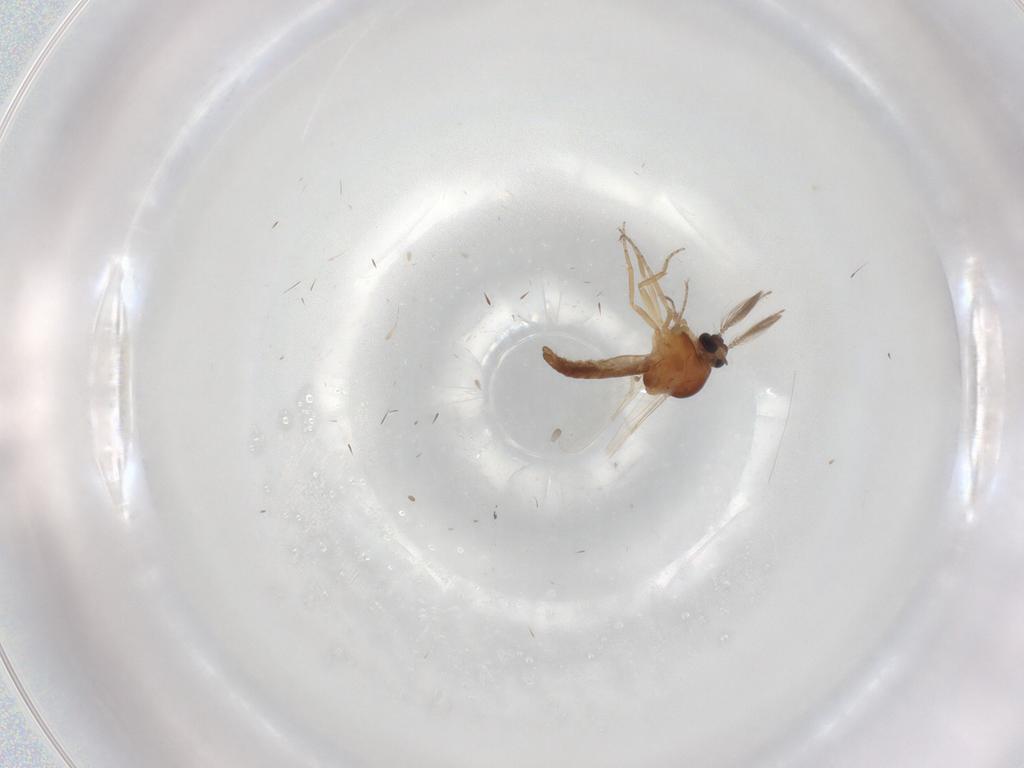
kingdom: Animalia
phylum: Arthropoda
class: Insecta
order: Diptera
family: Ceratopogonidae
